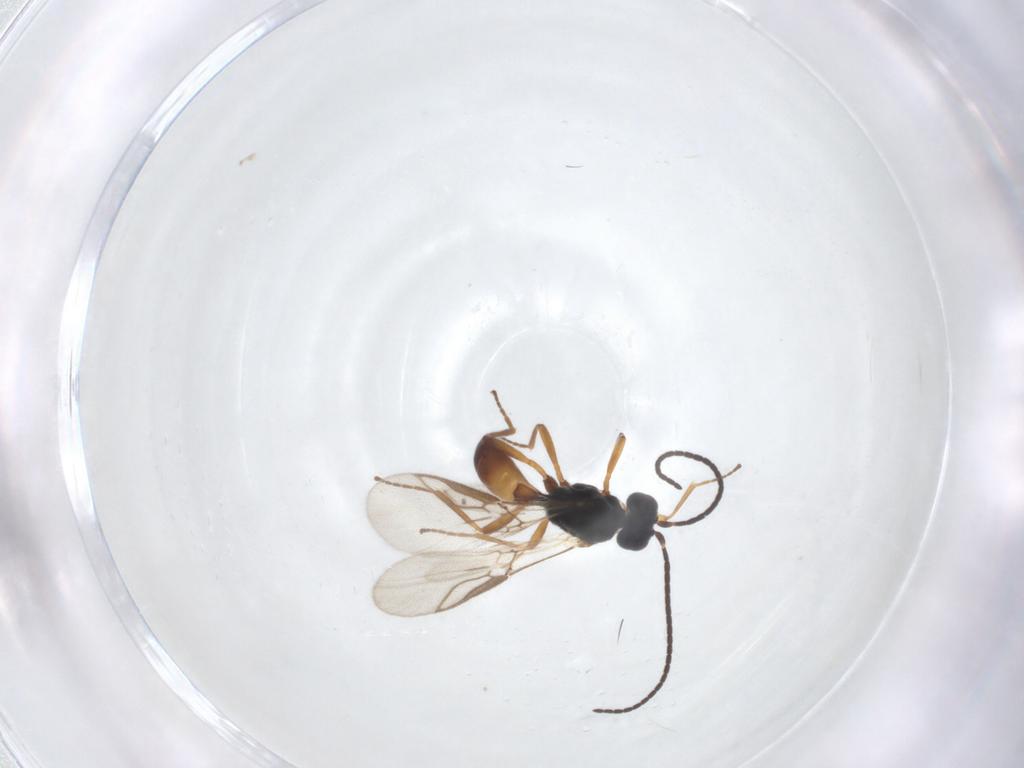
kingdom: Animalia
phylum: Arthropoda
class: Insecta
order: Hymenoptera
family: Braconidae
